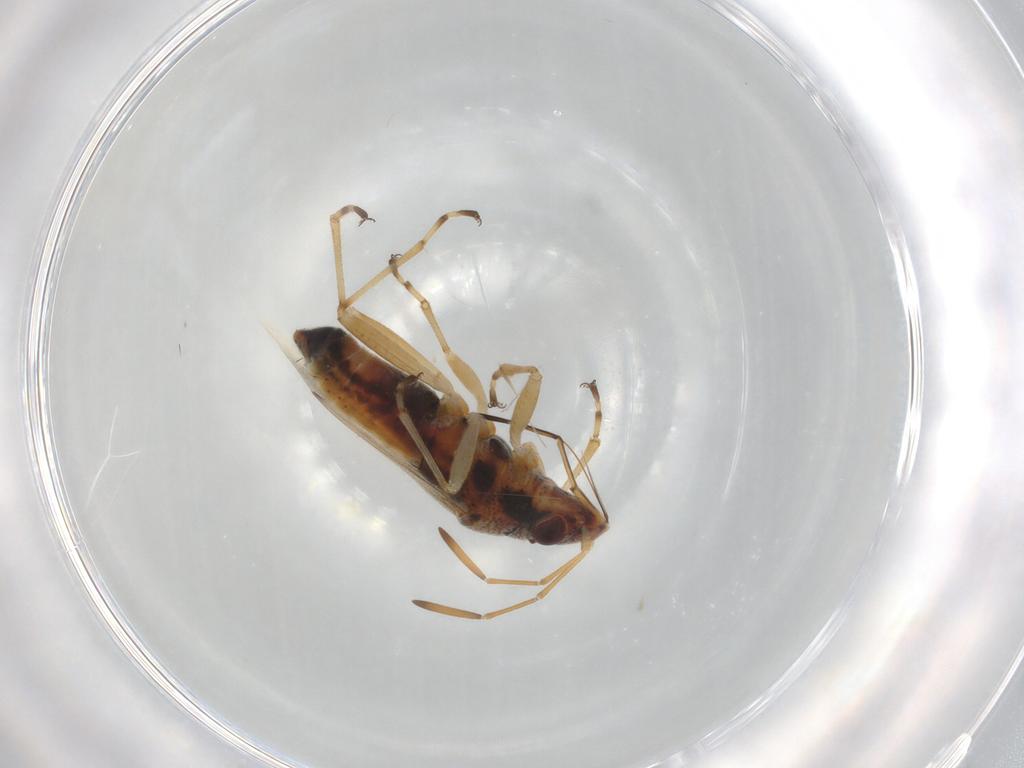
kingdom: Animalia
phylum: Arthropoda
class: Insecta
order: Hemiptera
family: Lygaeidae
